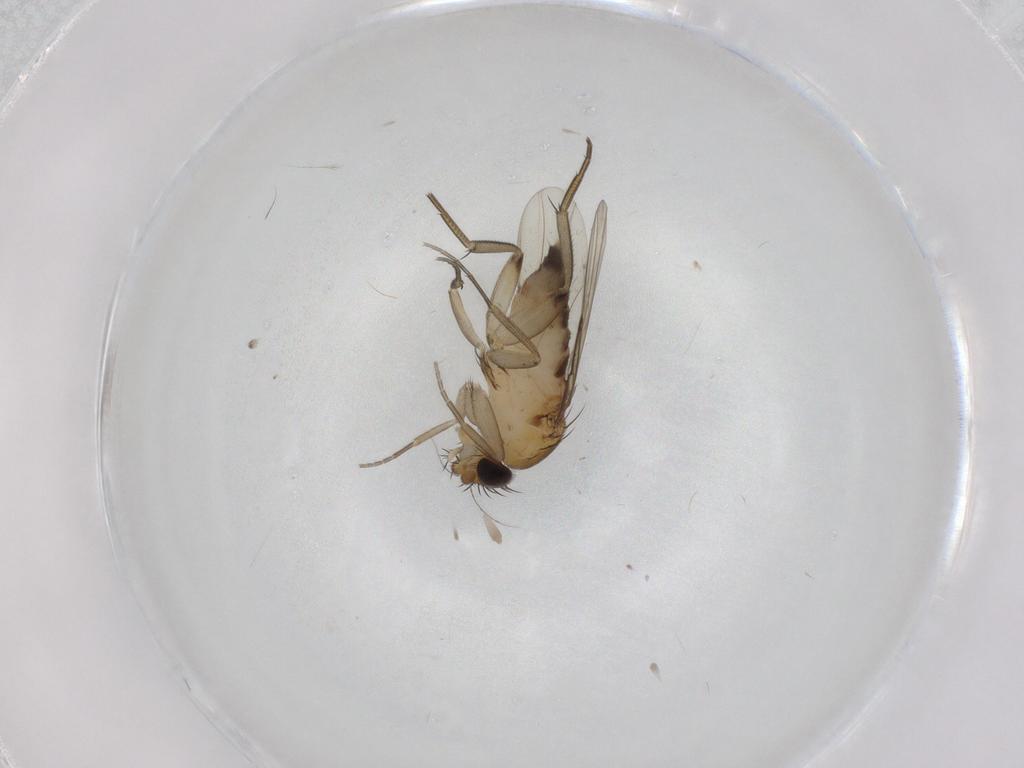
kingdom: Animalia
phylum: Arthropoda
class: Insecta
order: Diptera
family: Phoridae
